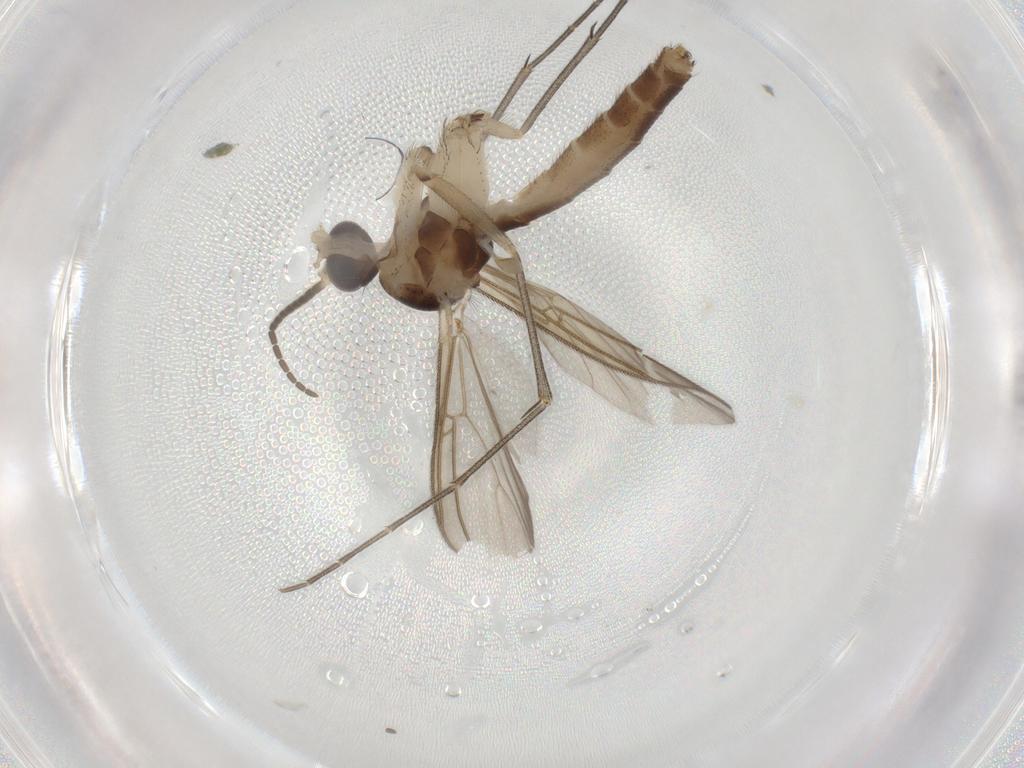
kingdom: Animalia
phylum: Arthropoda
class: Insecta
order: Diptera
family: Mycetophilidae
